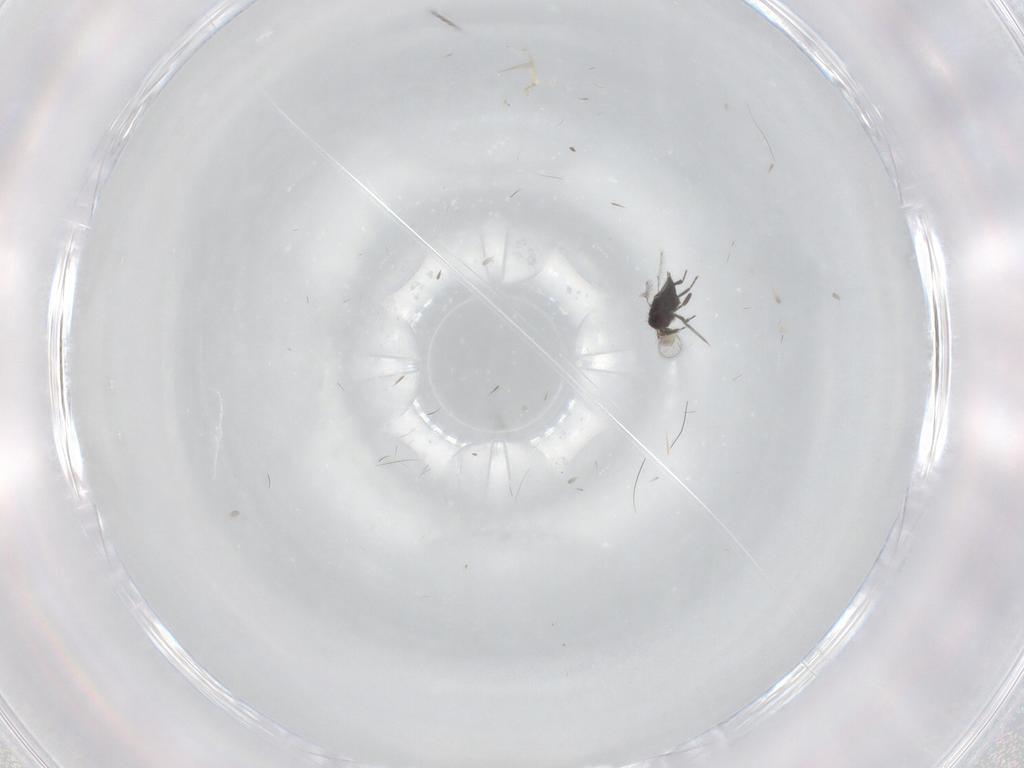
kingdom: Animalia
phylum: Arthropoda
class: Insecta
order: Hymenoptera
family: Trichogrammatidae
